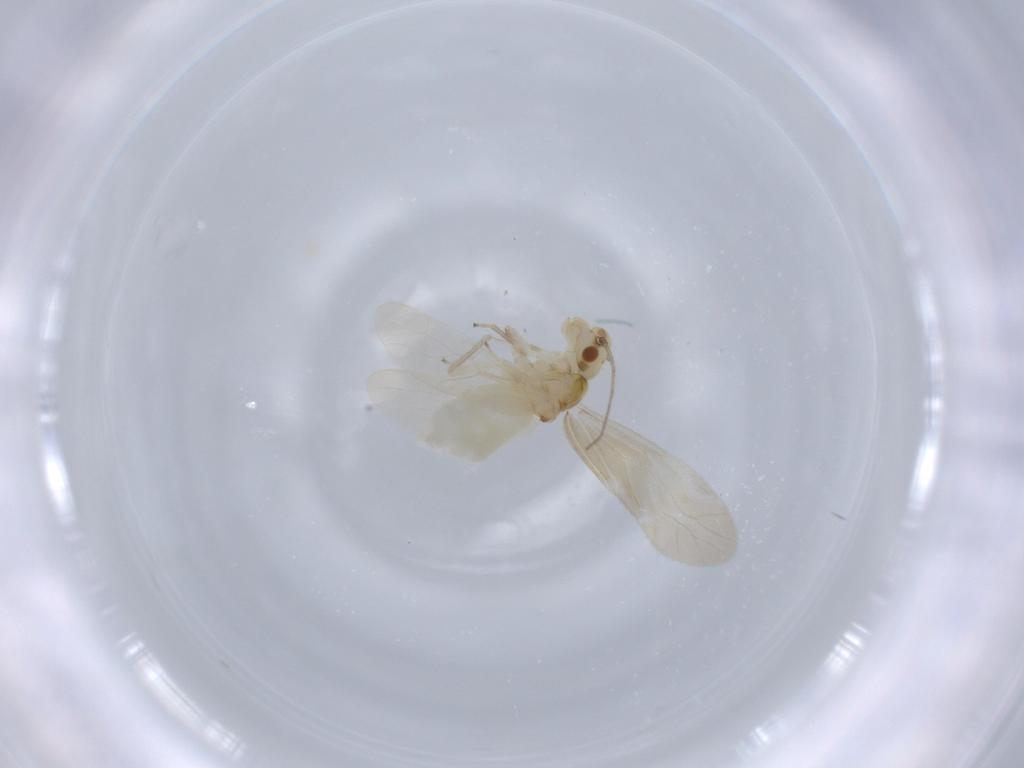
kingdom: Animalia
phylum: Arthropoda
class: Insecta
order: Psocodea
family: Caeciliusidae
